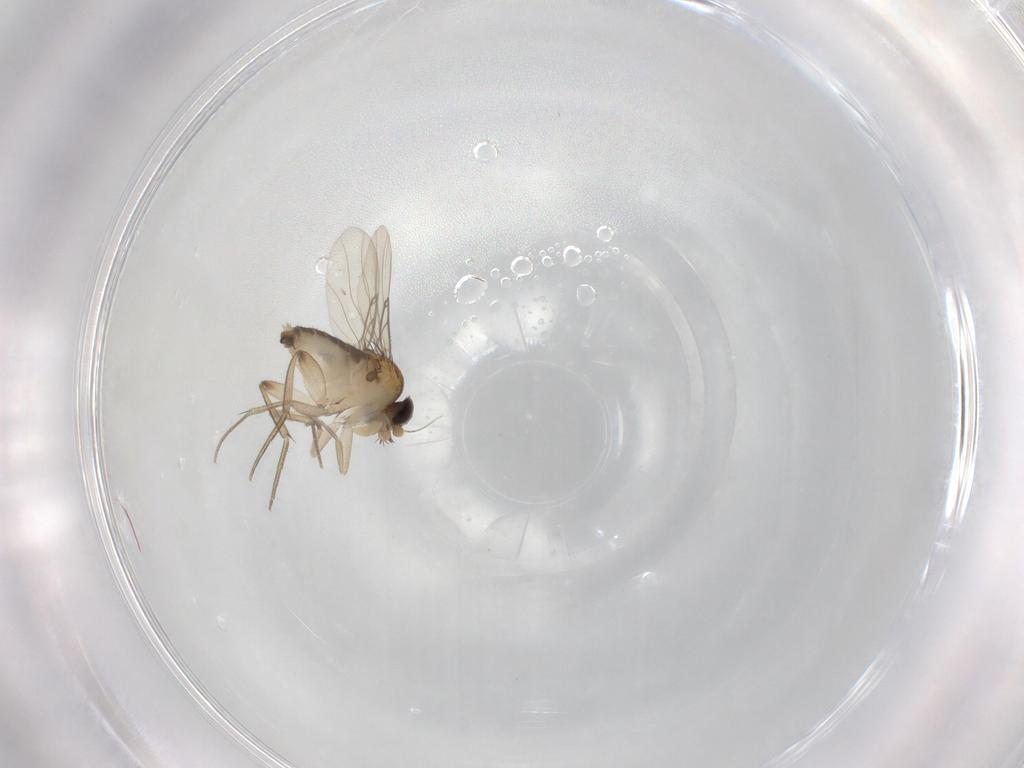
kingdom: Animalia
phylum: Arthropoda
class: Insecta
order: Diptera
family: Phoridae
